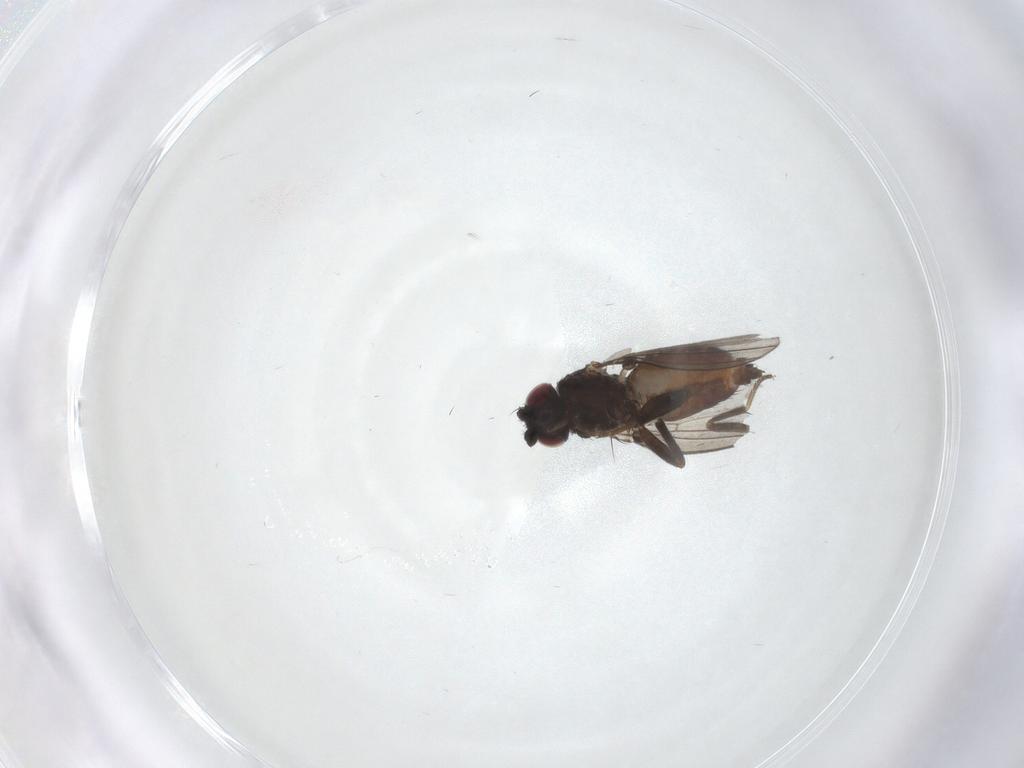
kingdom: Animalia
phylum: Arthropoda
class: Insecta
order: Diptera
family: Milichiidae
